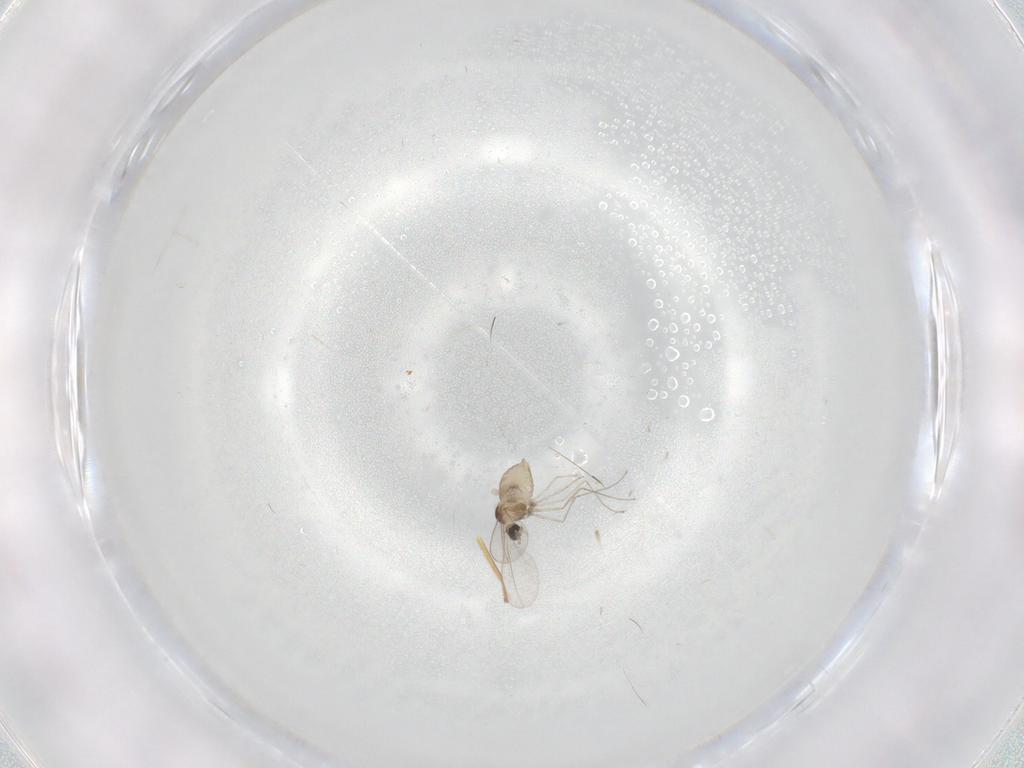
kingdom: Animalia
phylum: Arthropoda
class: Insecta
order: Diptera
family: Cecidomyiidae
